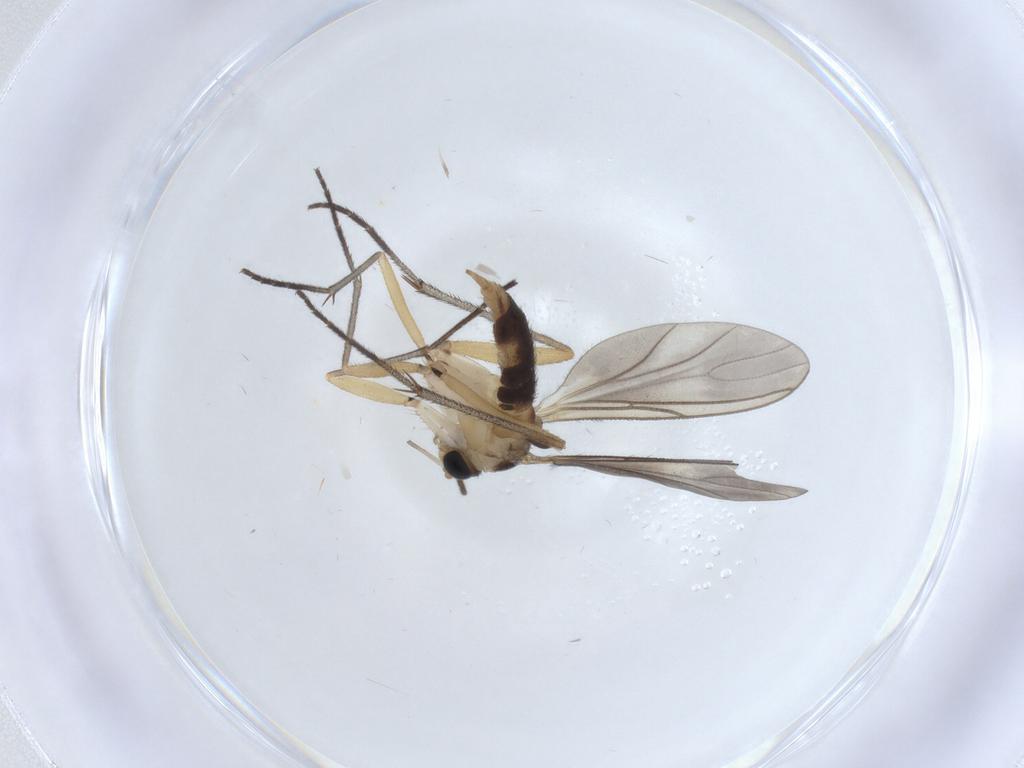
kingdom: Animalia
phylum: Arthropoda
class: Insecta
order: Diptera
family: Sciaridae
